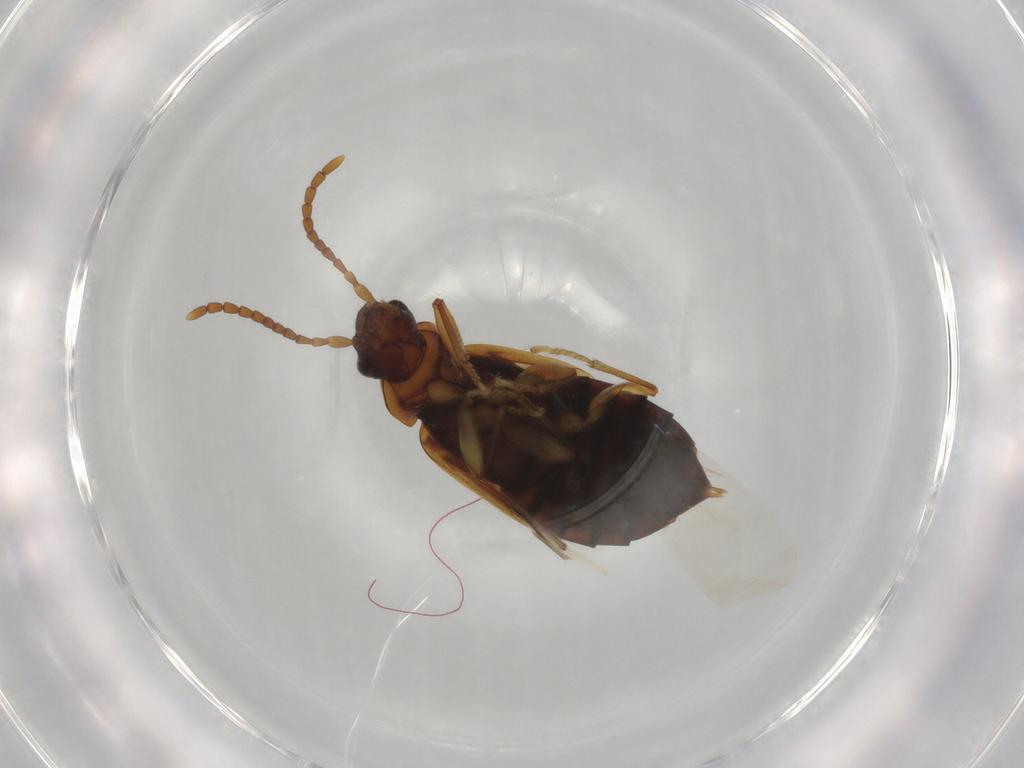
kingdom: Animalia
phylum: Arthropoda
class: Insecta
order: Coleoptera
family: Staphylinidae
